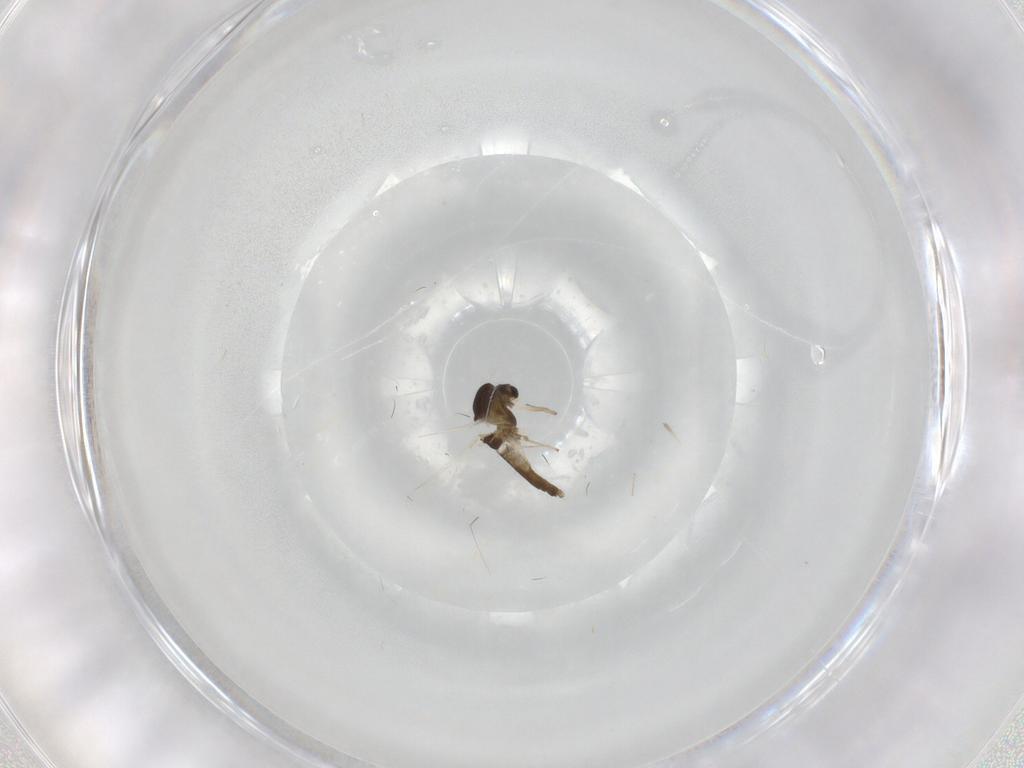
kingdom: Animalia
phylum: Arthropoda
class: Insecta
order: Diptera
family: Chironomidae
